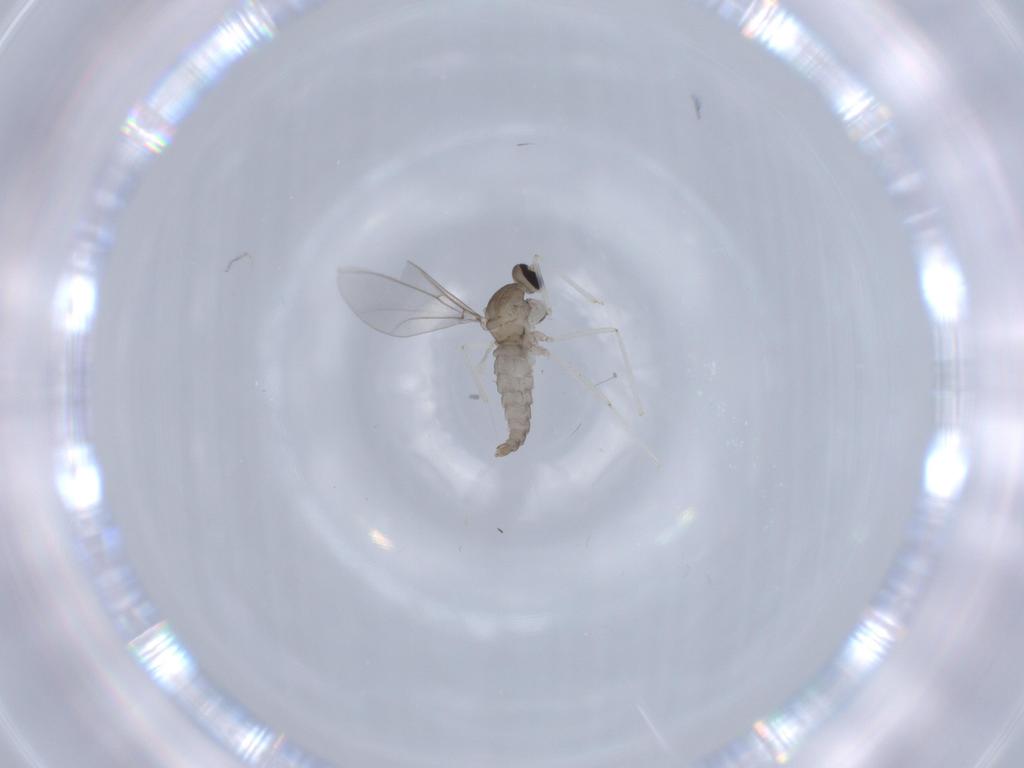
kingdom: Animalia
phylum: Arthropoda
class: Insecta
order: Diptera
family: Cecidomyiidae
